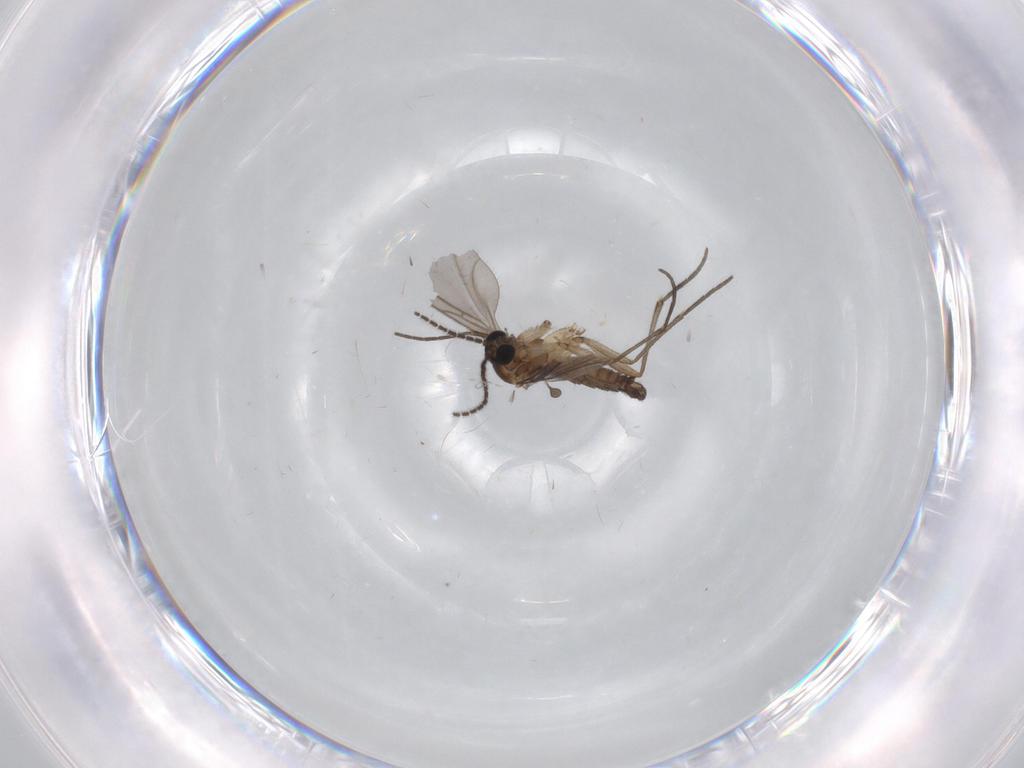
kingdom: Animalia
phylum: Arthropoda
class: Insecta
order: Diptera
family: Sciaridae
